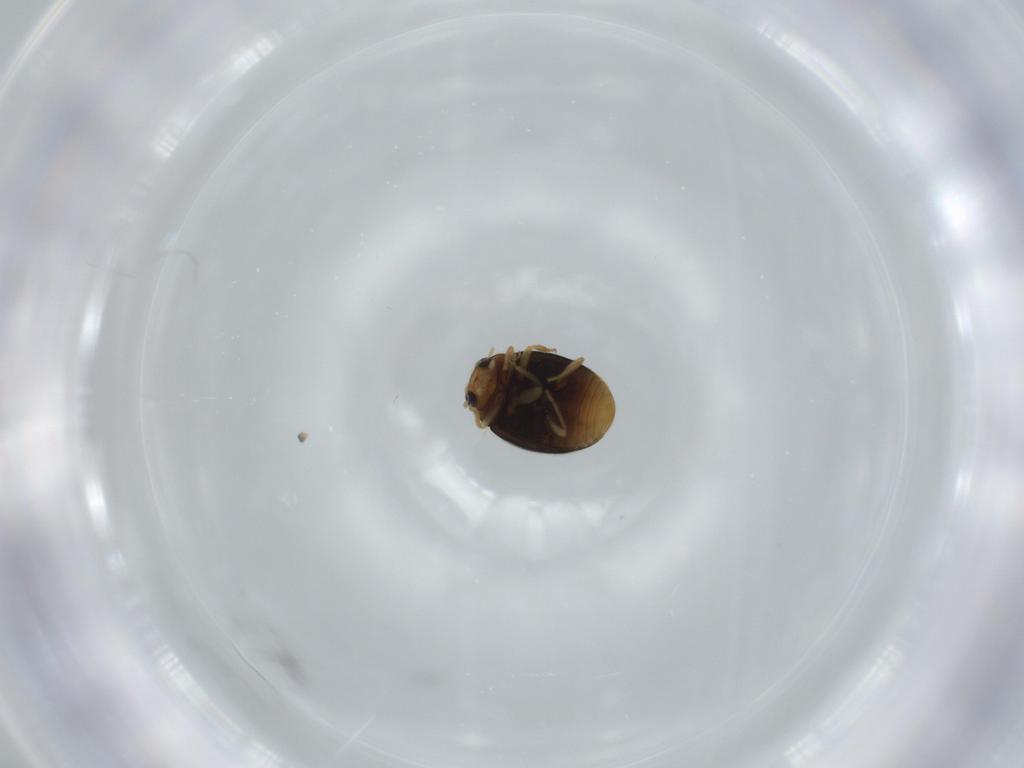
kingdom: Animalia
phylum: Arthropoda
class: Insecta
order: Coleoptera
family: Coccinellidae
